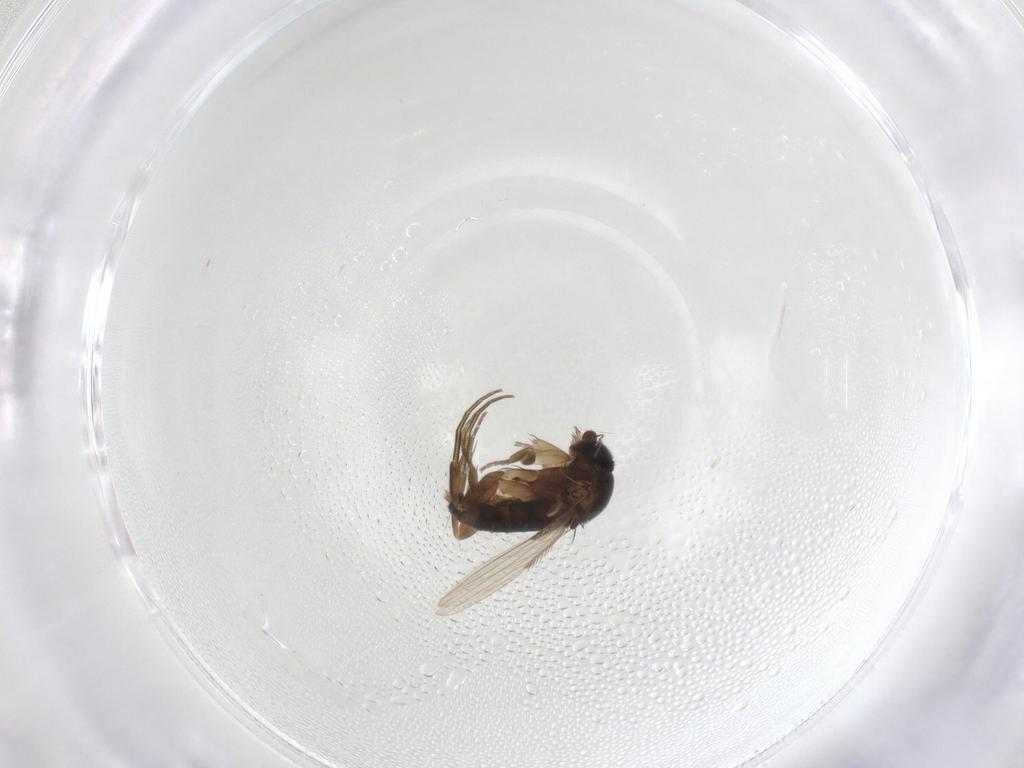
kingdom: Animalia
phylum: Arthropoda
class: Insecta
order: Diptera
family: Phoridae
